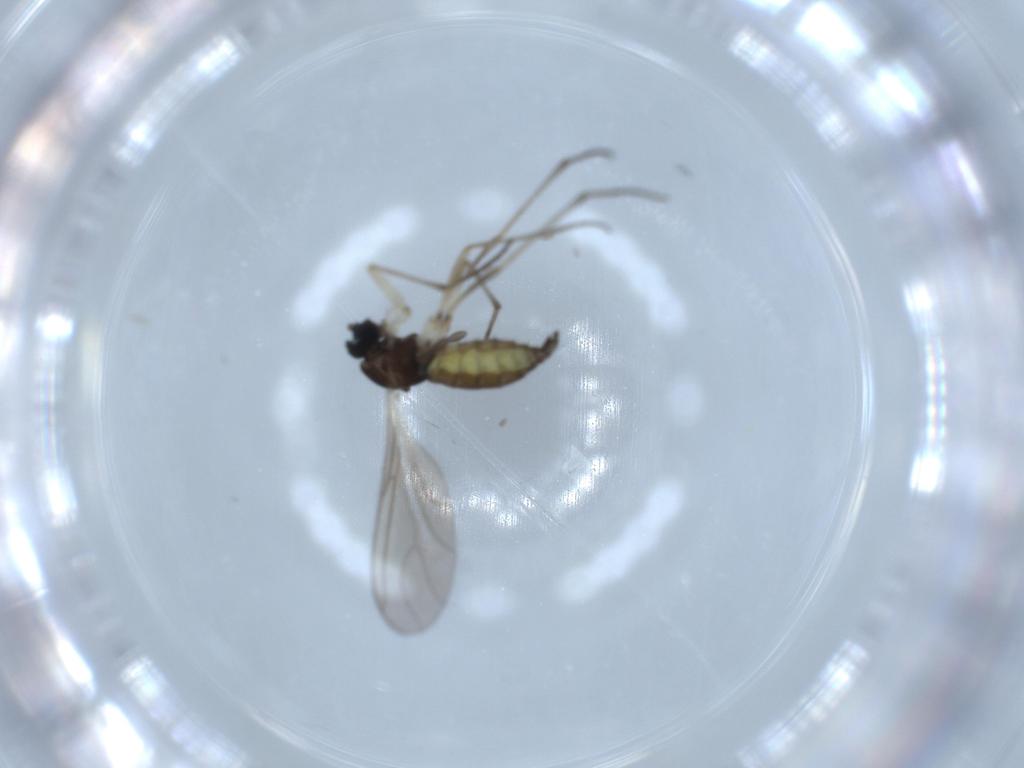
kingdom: Animalia
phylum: Arthropoda
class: Insecta
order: Diptera
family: Sciaridae
